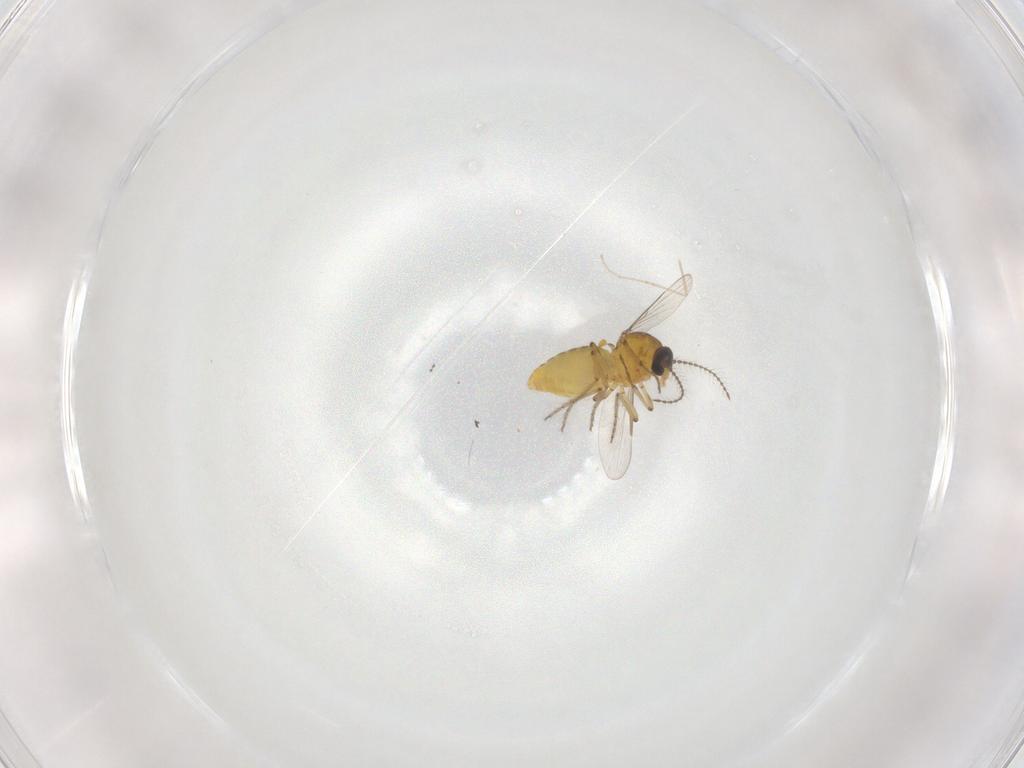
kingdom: Animalia
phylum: Arthropoda
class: Insecta
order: Diptera
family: Ceratopogonidae
